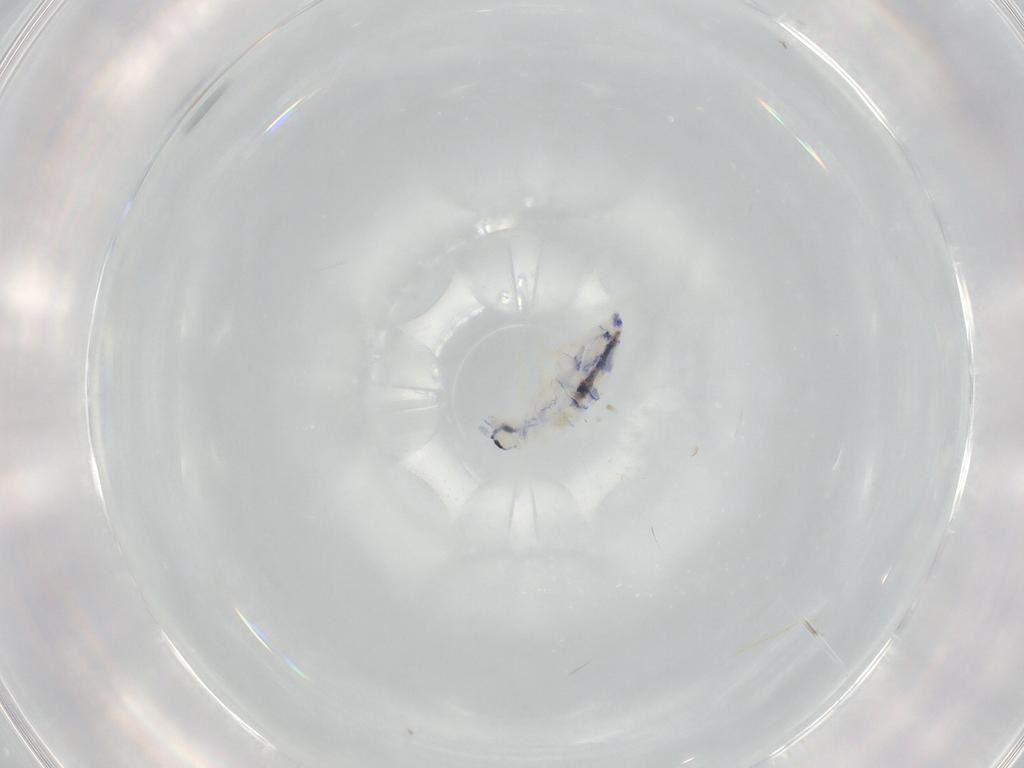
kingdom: Animalia
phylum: Arthropoda
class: Collembola
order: Entomobryomorpha
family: Entomobryidae
